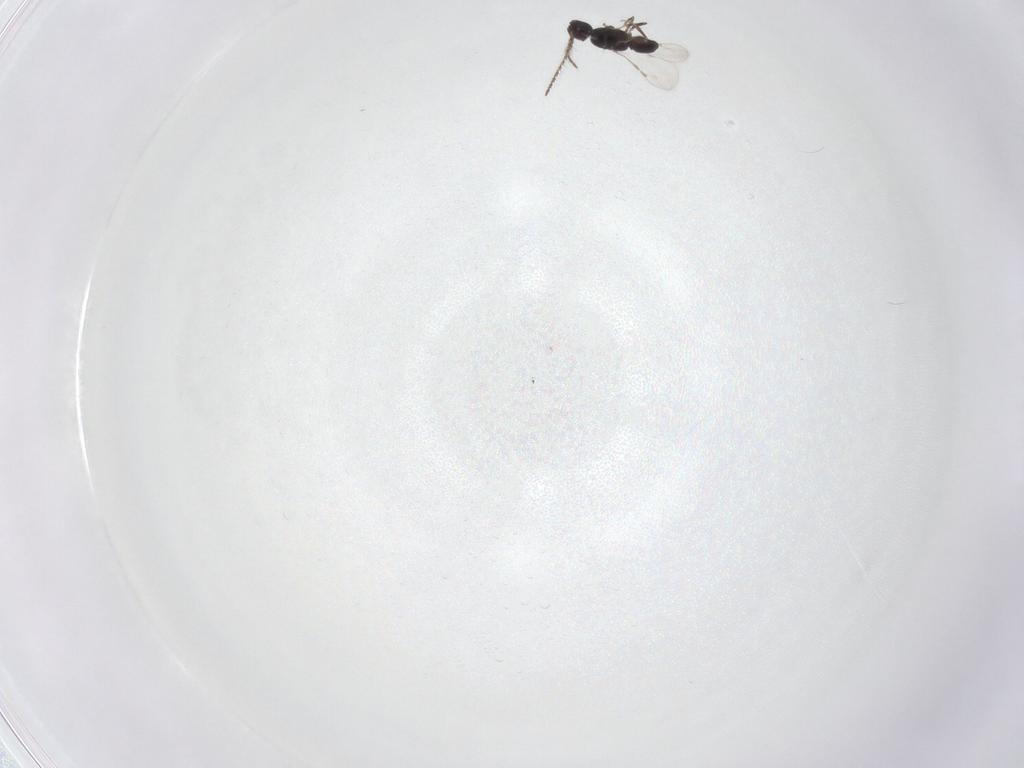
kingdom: Animalia
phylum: Arthropoda
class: Insecta
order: Hymenoptera
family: Ceraphronidae
